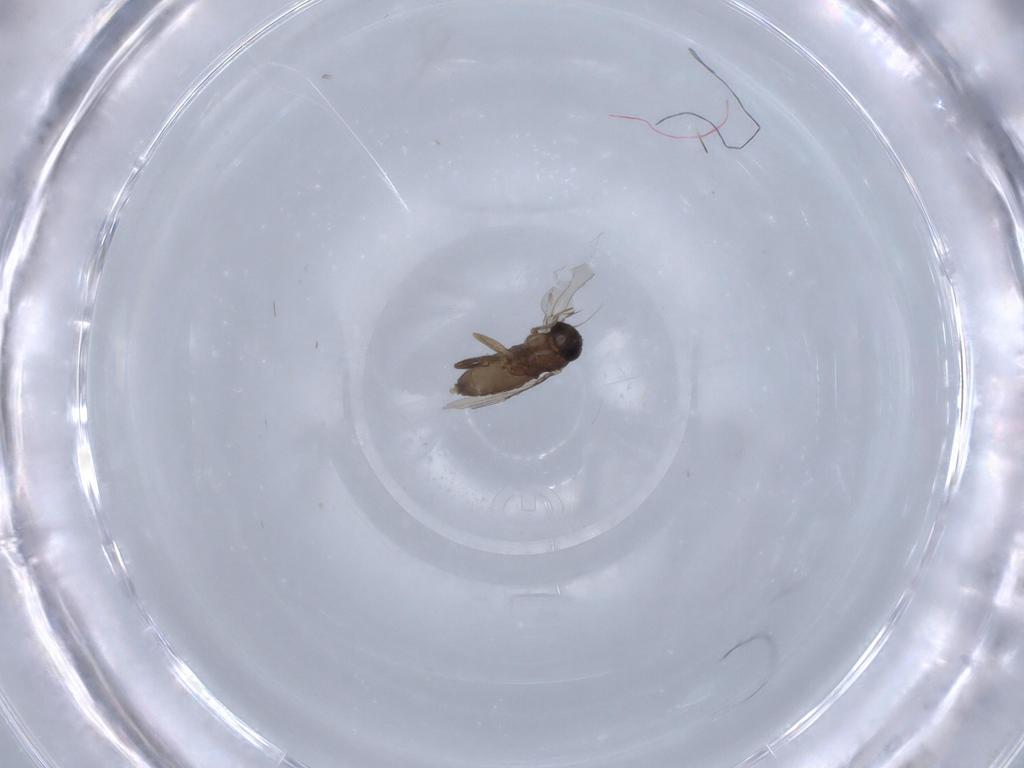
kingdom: Animalia
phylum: Arthropoda
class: Insecta
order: Diptera
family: Phoridae
